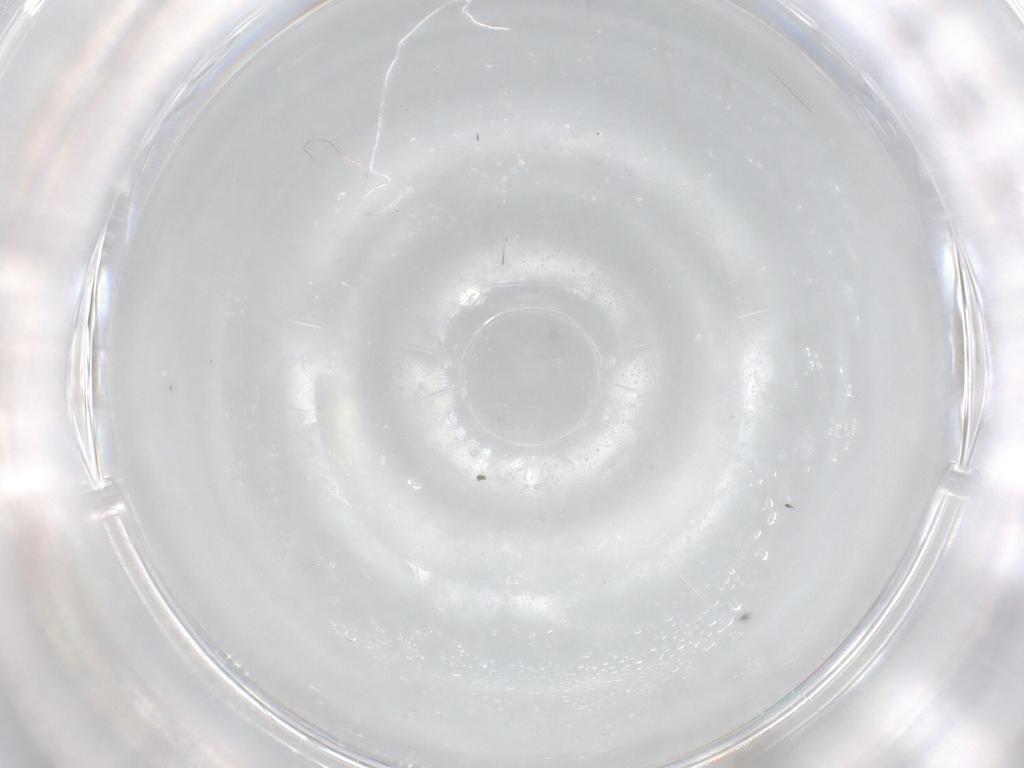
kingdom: Animalia
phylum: Arthropoda
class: Insecta
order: Diptera
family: Cecidomyiidae
